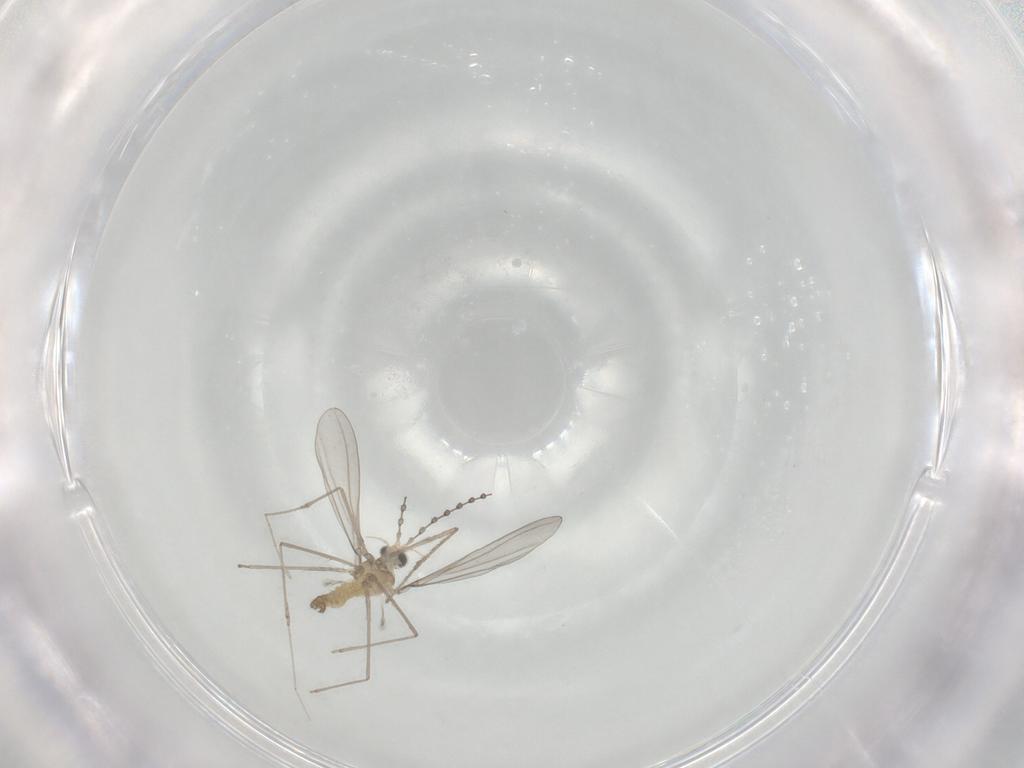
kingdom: Animalia
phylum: Arthropoda
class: Insecta
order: Diptera
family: Cecidomyiidae
